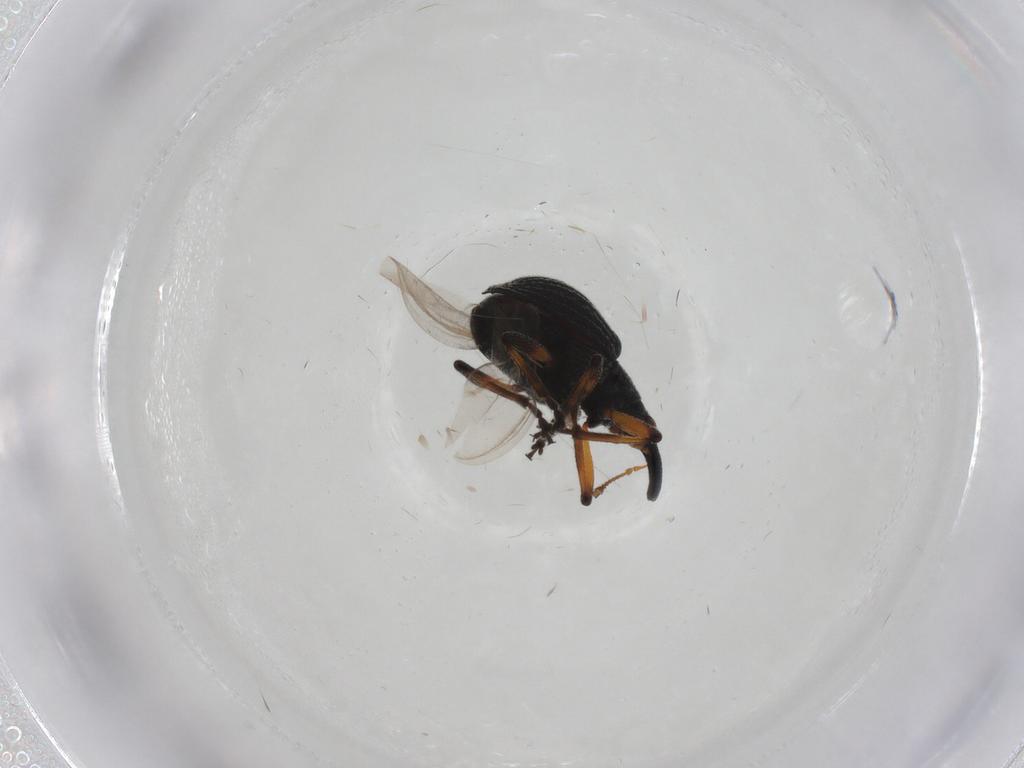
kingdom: Animalia
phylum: Arthropoda
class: Insecta
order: Coleoptera
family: Brentidae
